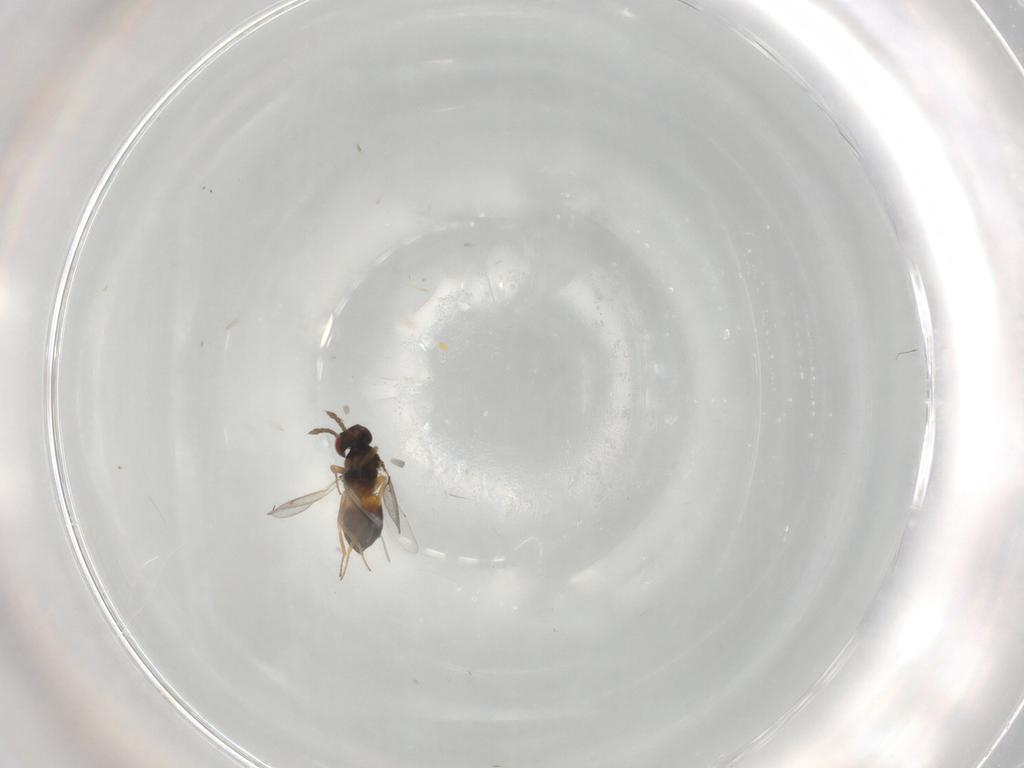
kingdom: Animalia
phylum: Arthropoda
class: Insecta
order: Hymenoptera
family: Eulophidae
